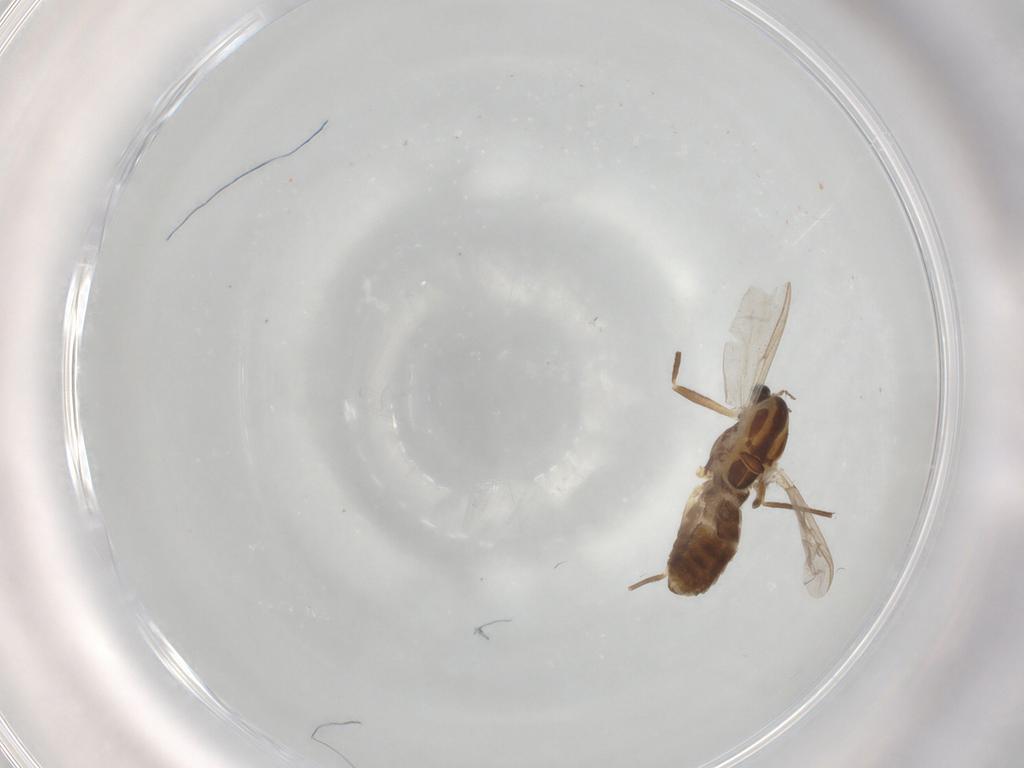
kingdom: Animalia
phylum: Arthropoda
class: Insecta
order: Diptera
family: Chironomidae
